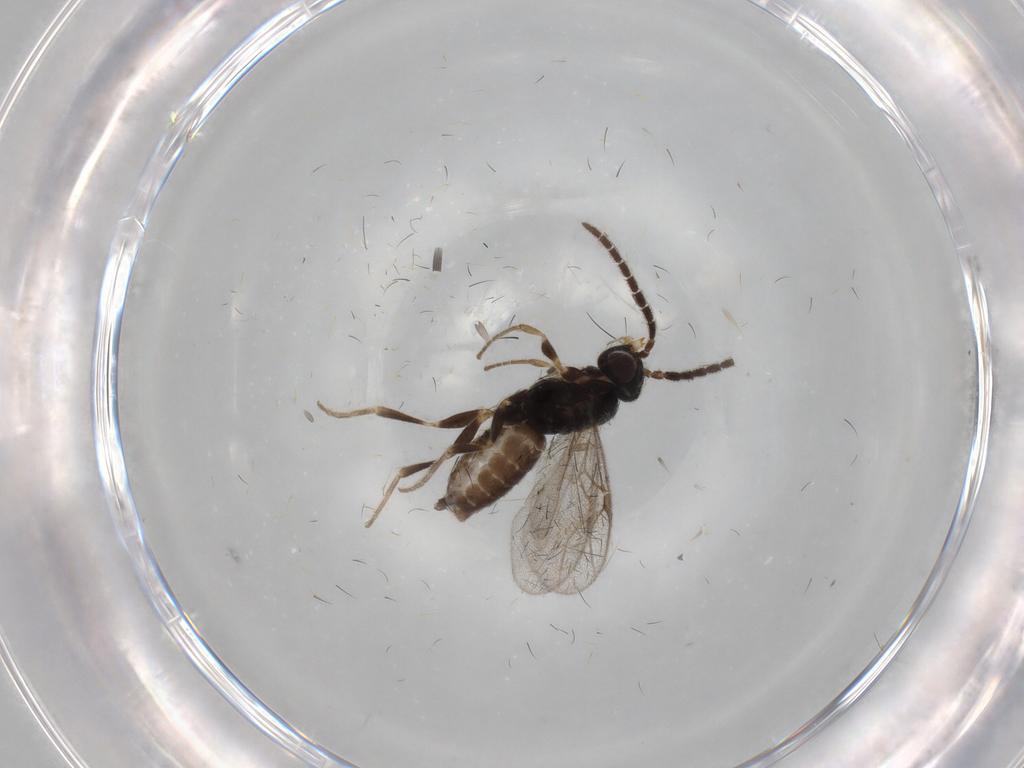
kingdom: Animalia
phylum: Arthropoda
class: Insecta
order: Hymenoptera
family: Dryinidae
